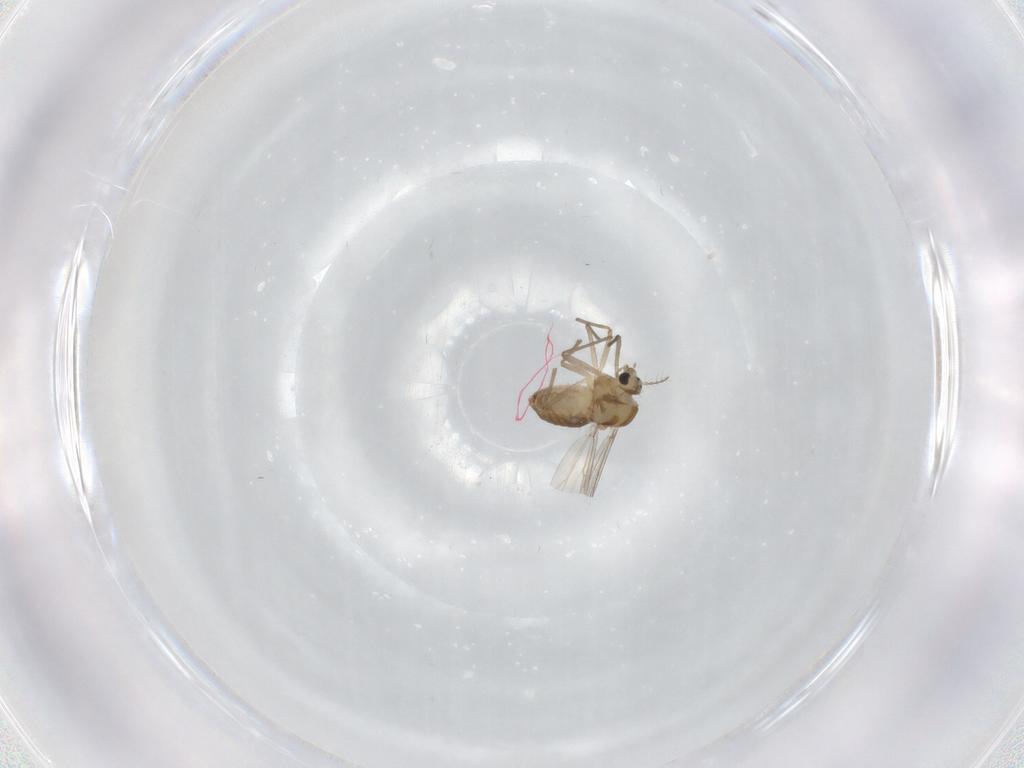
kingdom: Animalia
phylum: Arthropoda
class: Insecta
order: Diptera
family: Chironomidae
